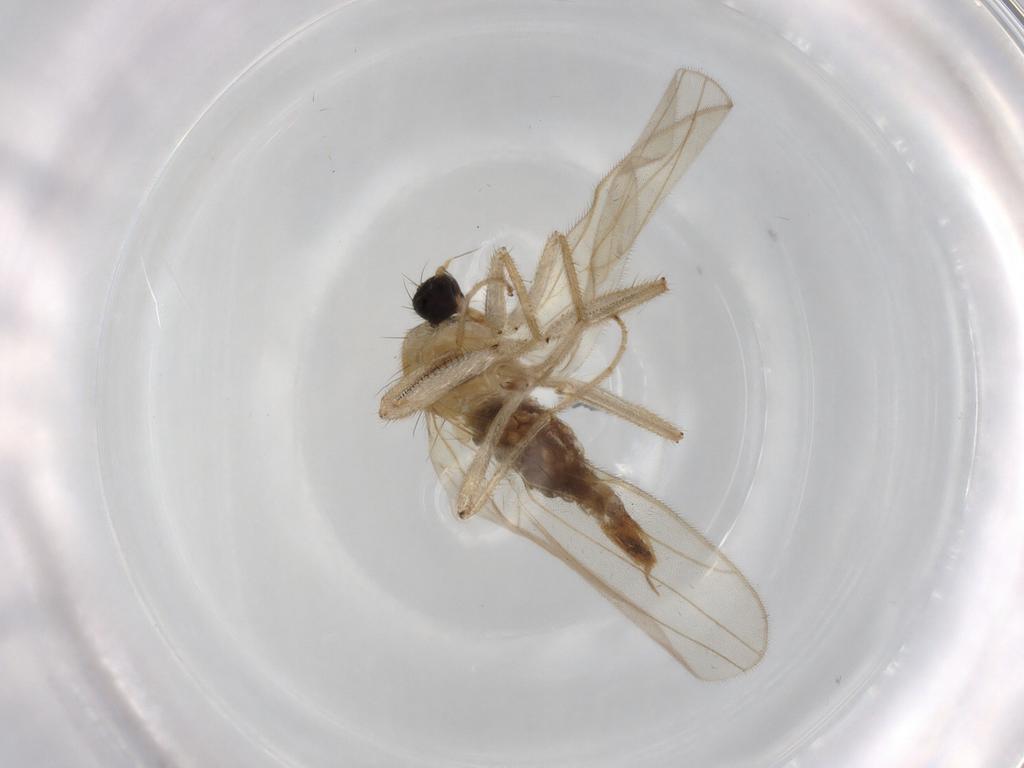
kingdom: Animalia
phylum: Arthropoda
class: Insecta
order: Diptera
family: Hybotidae
